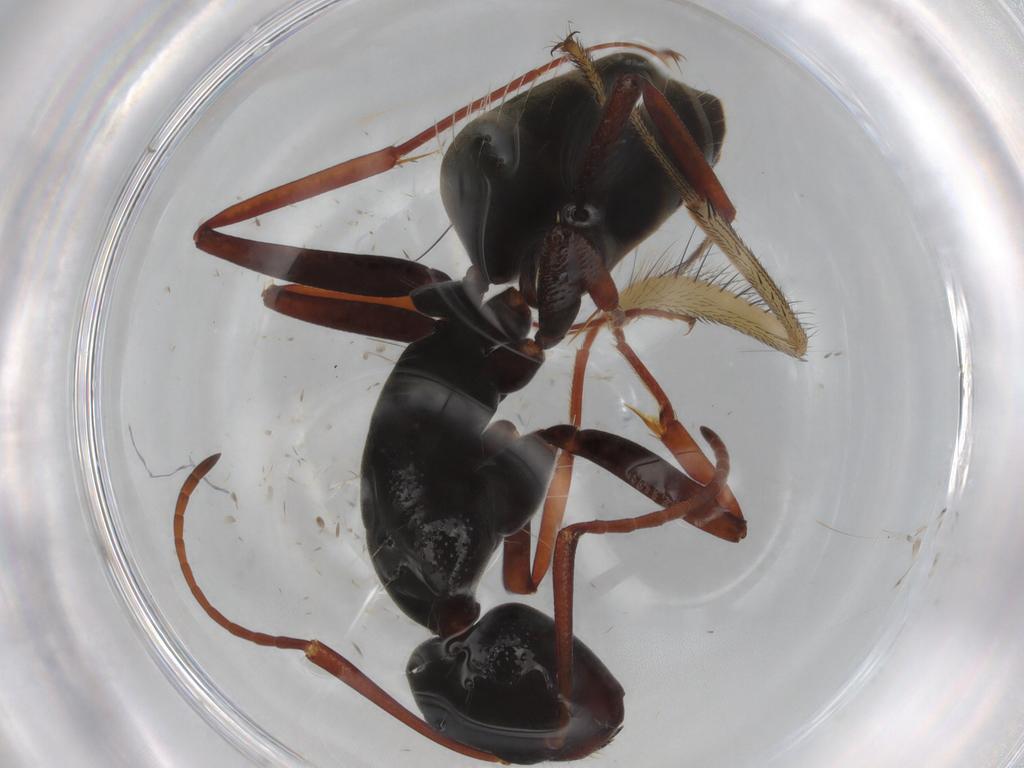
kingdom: Animalia
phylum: Arthropoda
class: Insecta
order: Hymenoptera
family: Formicidae
